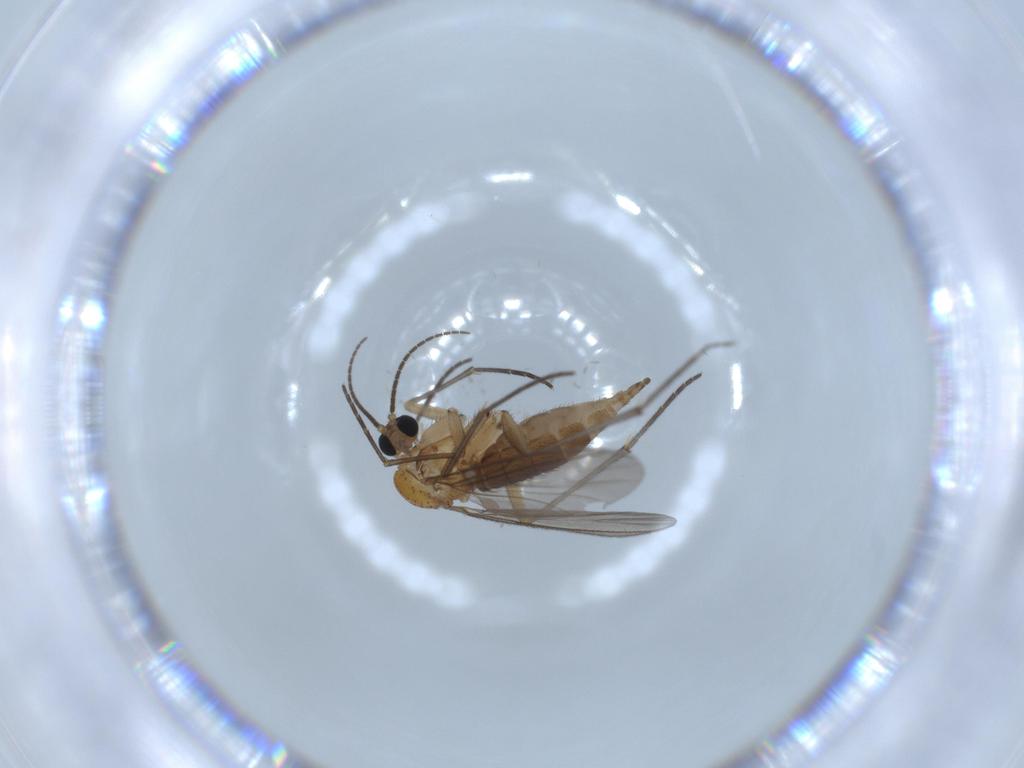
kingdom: Animalia
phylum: Arthropoda
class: Insecta
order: Diptera
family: Sciaridae
